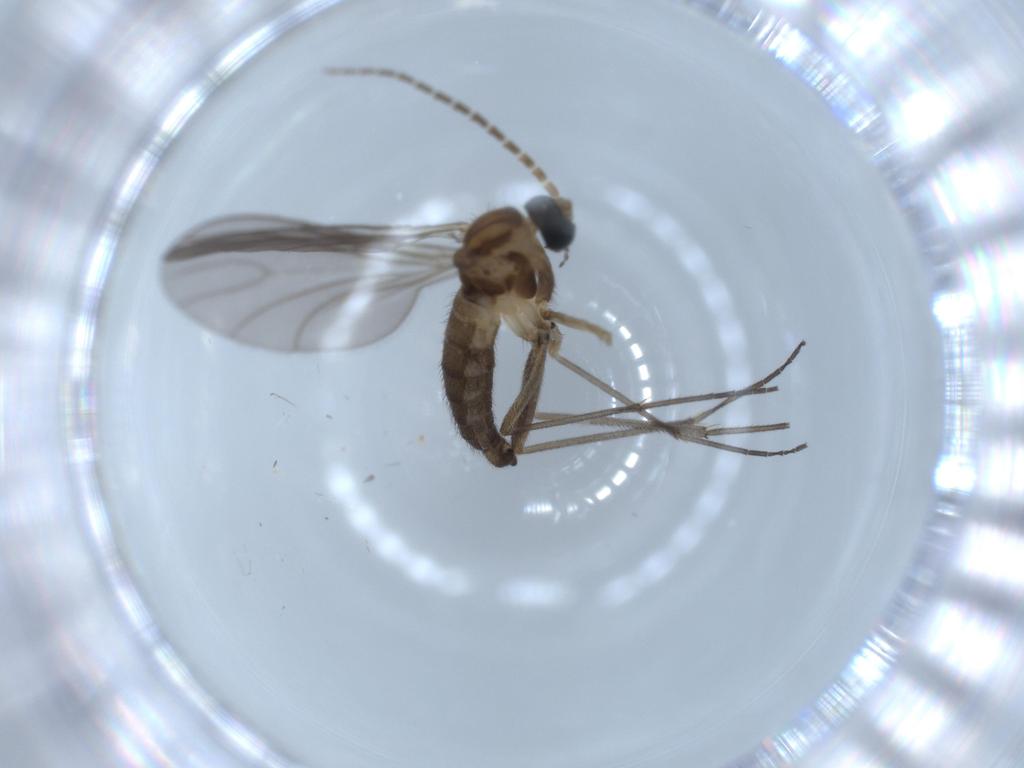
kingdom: Animalia
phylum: Arthropoda
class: Insecta
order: Diptera
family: Sciaridae
